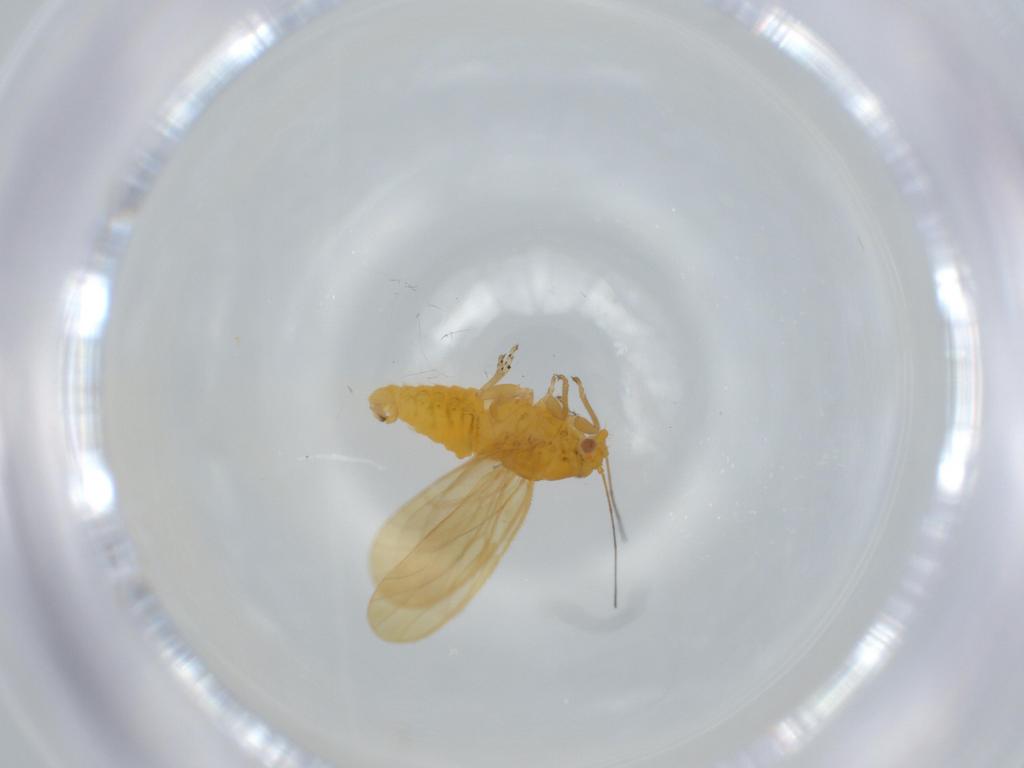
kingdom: Animalia
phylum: Arthropoda
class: Insecta
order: Hemiptera
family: Psyllidae
